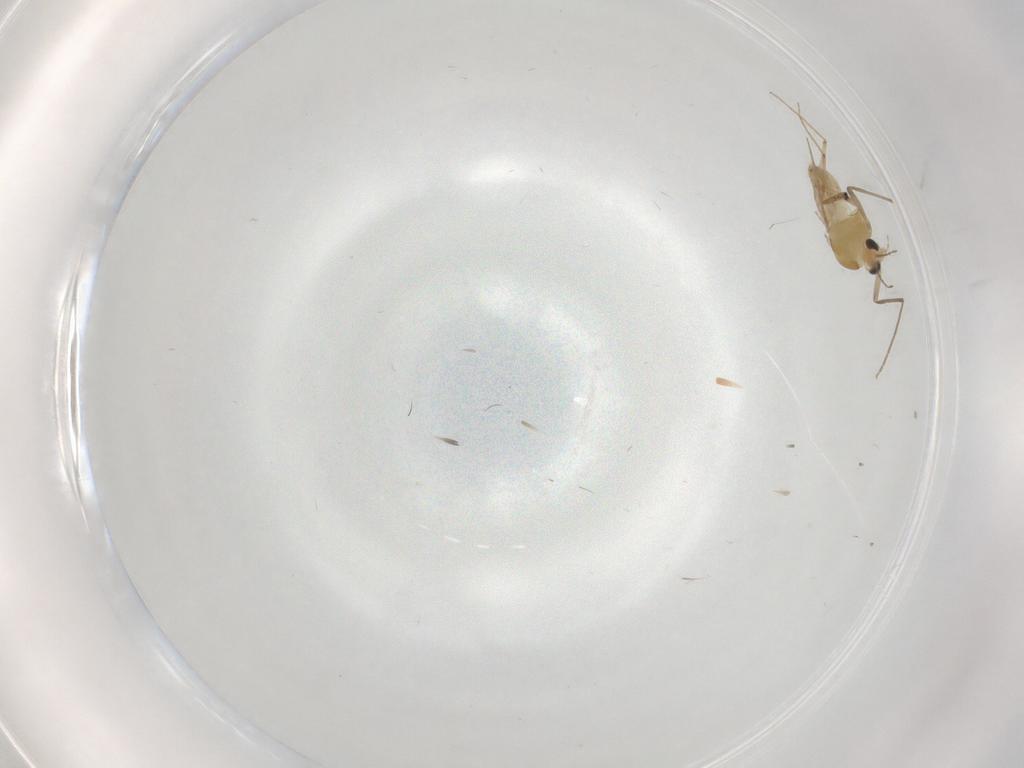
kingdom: Animalia
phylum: Arthropoda
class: Insecta
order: Diptera
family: Chironomidae
